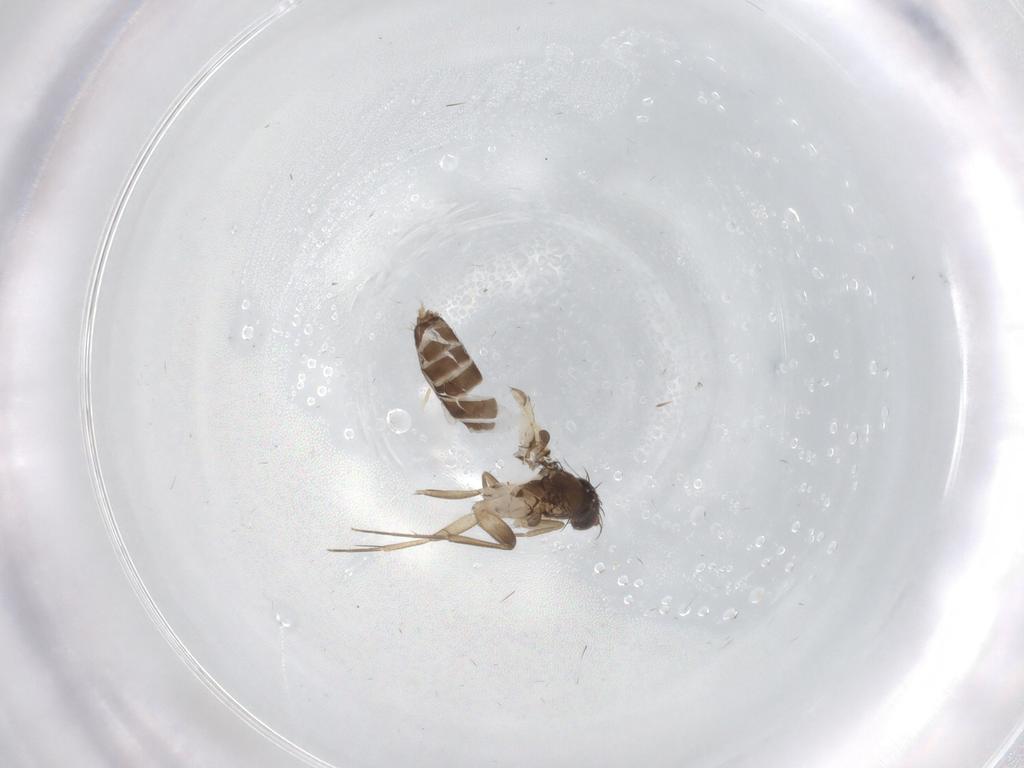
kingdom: Animalia
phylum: Arthropoda
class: Insecta
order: Diptera
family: Phoridae
